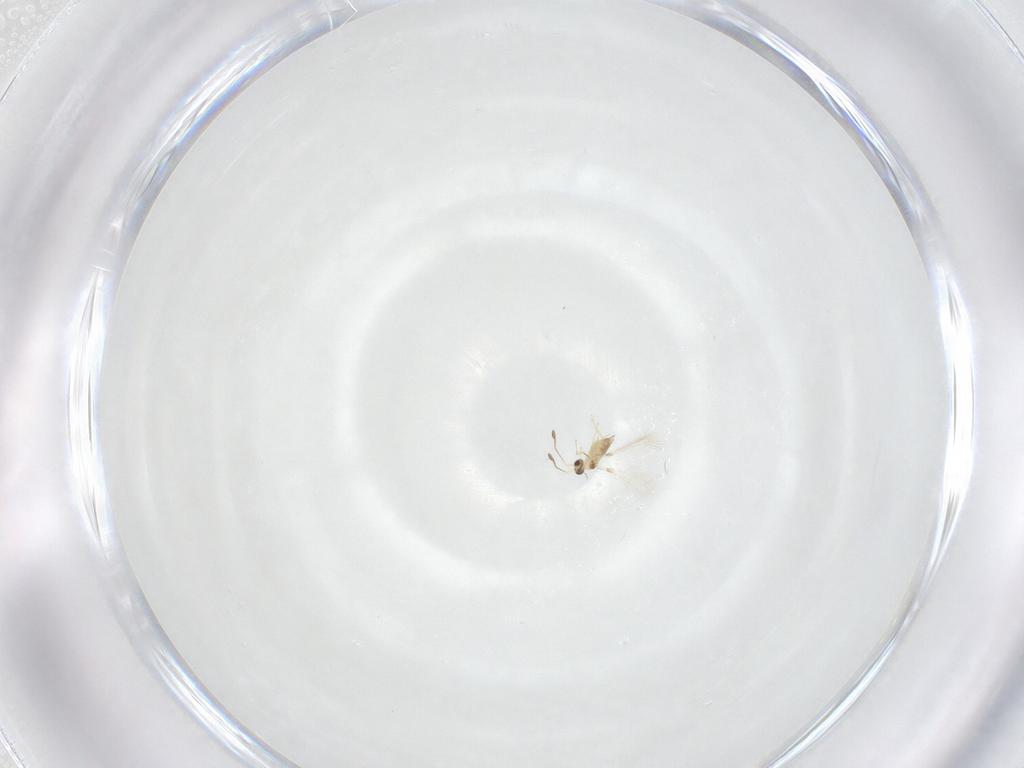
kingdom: Animalia
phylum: Arthropoda
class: Insecta
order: Hymenoptera
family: Mymaridae
